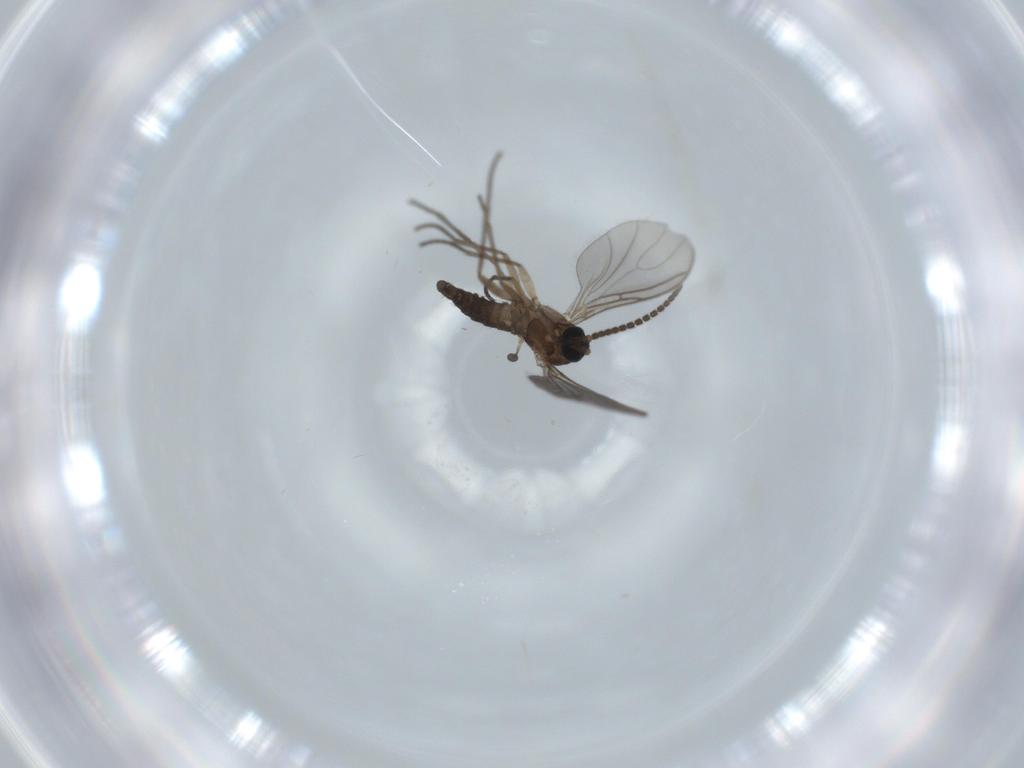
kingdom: Animalia
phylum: Arthropoda
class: Insecta
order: Diptera
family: Sciaridae
